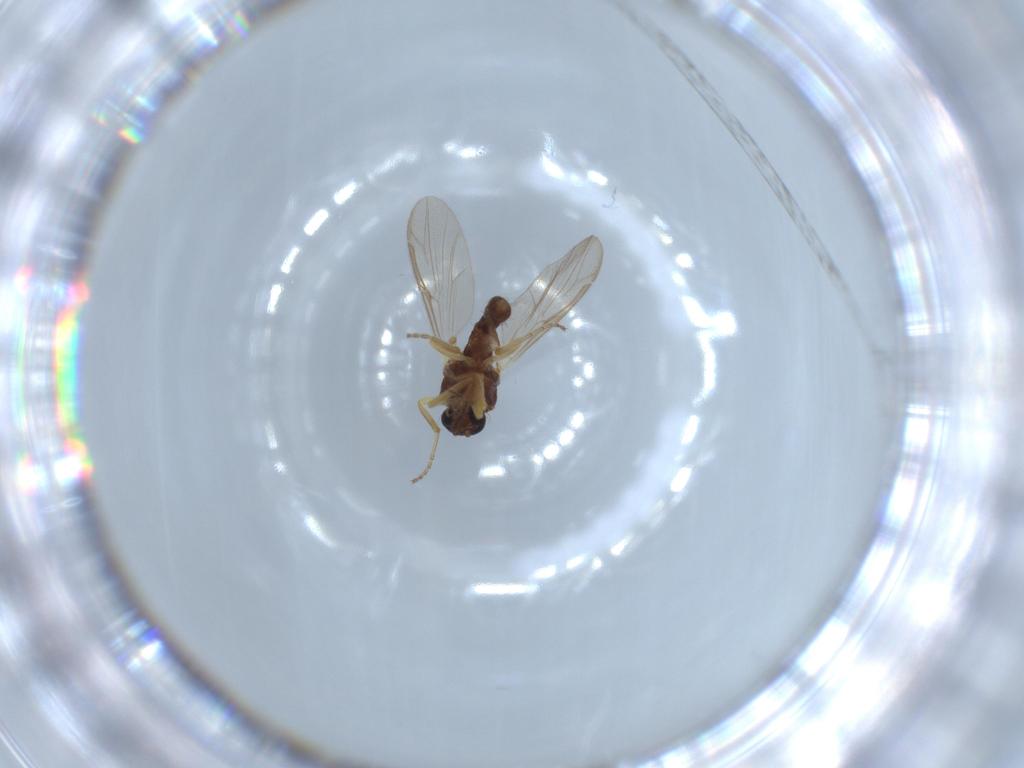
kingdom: Animalia
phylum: Arthropoda
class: Insecta
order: Diptera
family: Ceratopogonidae
